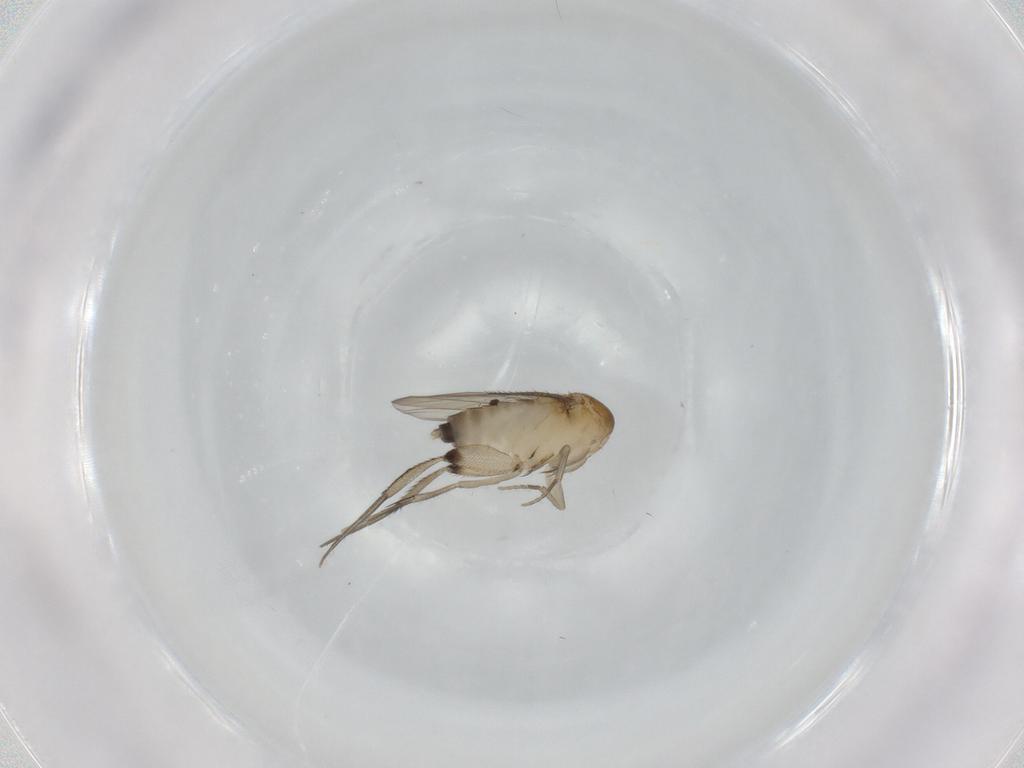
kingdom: Animalia
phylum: Arthropoda
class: Insecta
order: Diptera
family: Phoridae
